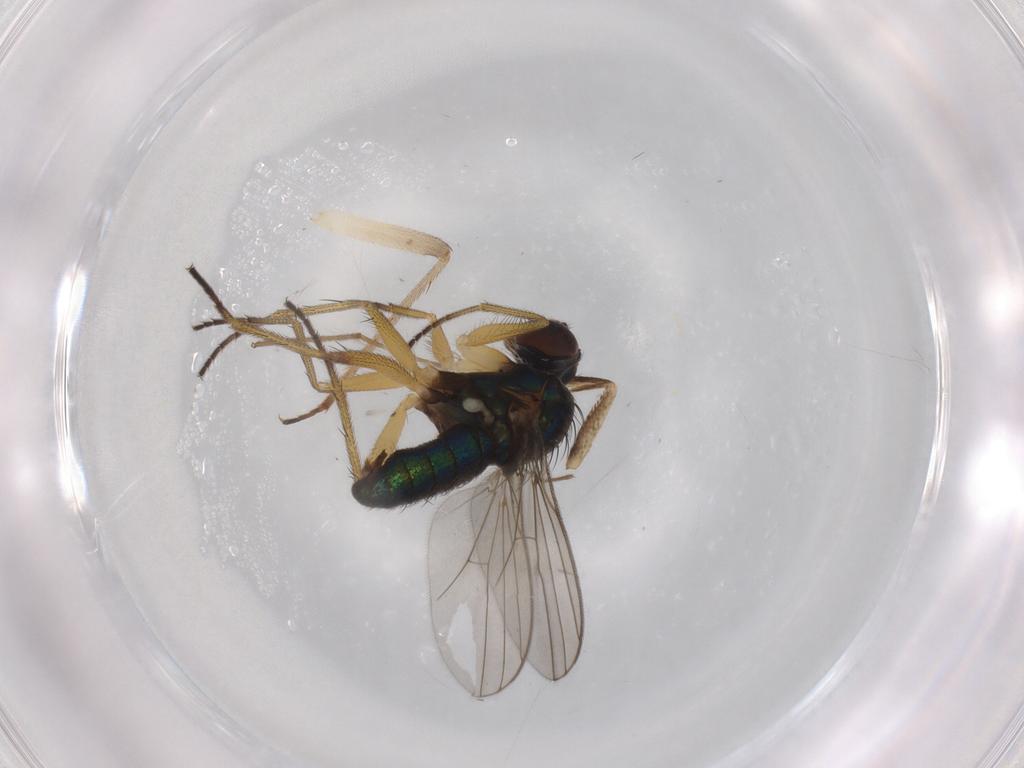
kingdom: Animalia
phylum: Arthropoda
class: Insecta
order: Diptera
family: Dolichopodidae
